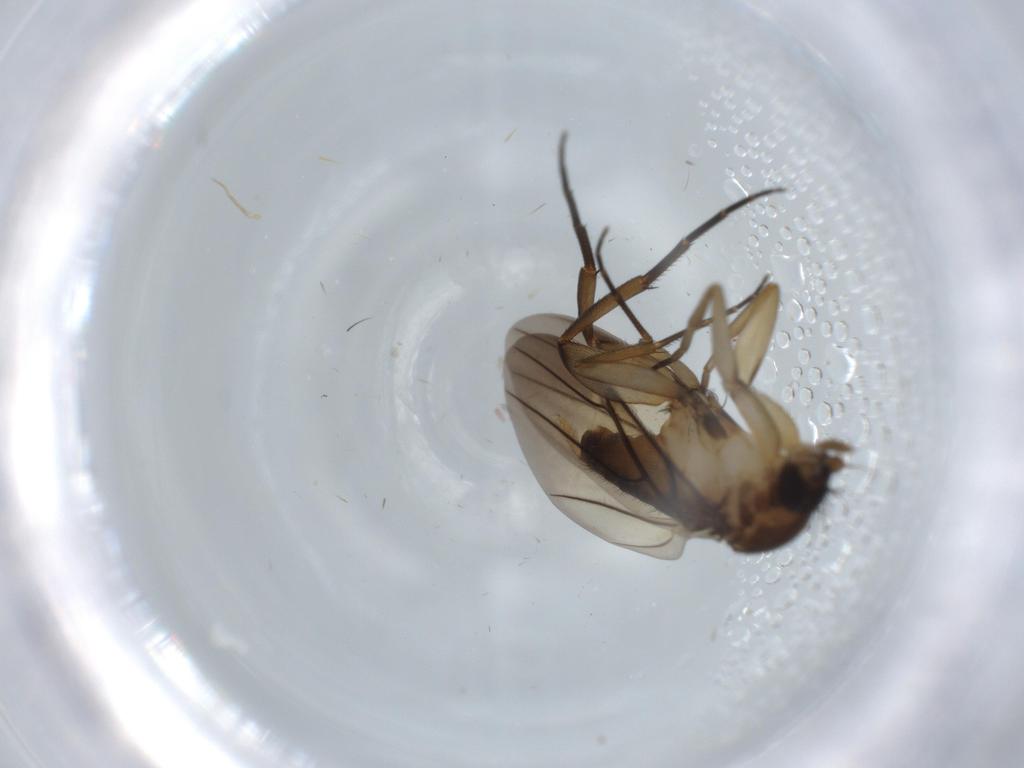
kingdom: Animalia
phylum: Arthropoda
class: Insecta
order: Diptera
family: Phoridae
